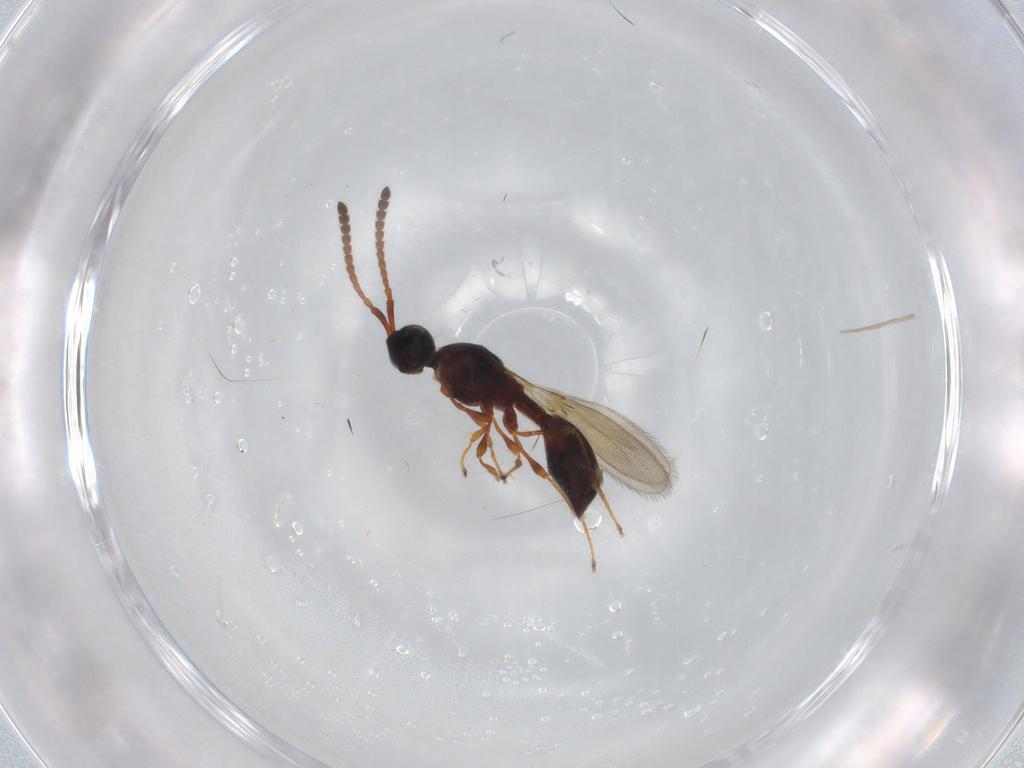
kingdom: Animalia
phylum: Arthropoda
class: Insecta
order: Hymenoptera
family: Diapriidae
